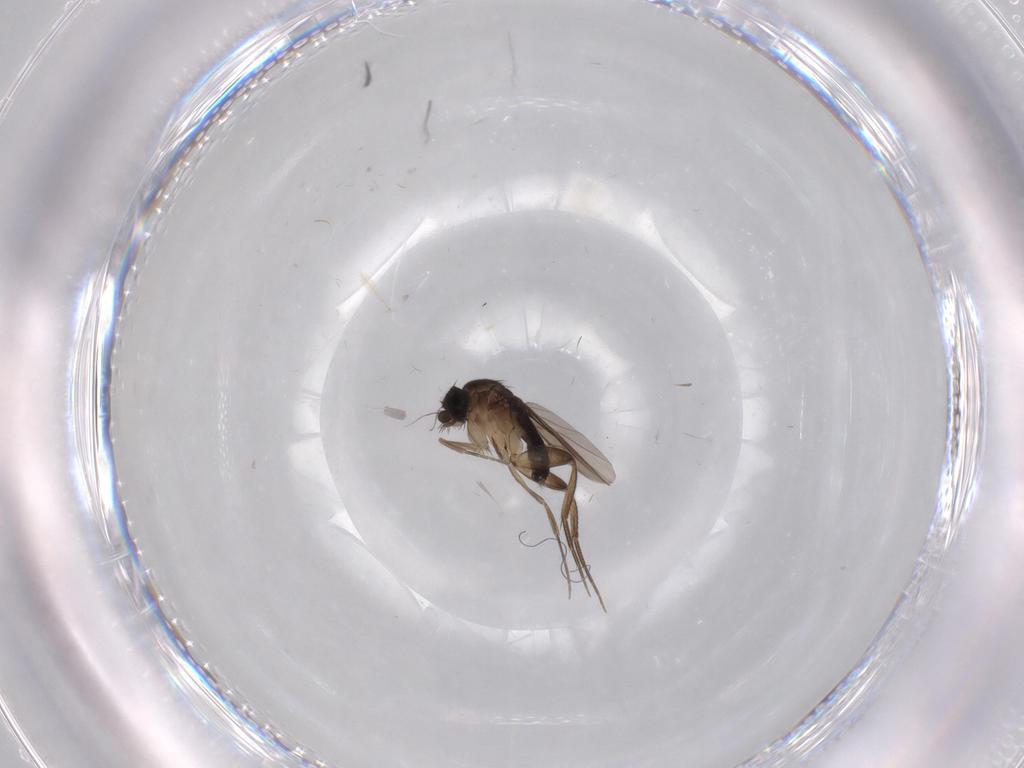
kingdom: Animalia
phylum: Arthropoda
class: Insecta
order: Diptera
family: Phoridae
